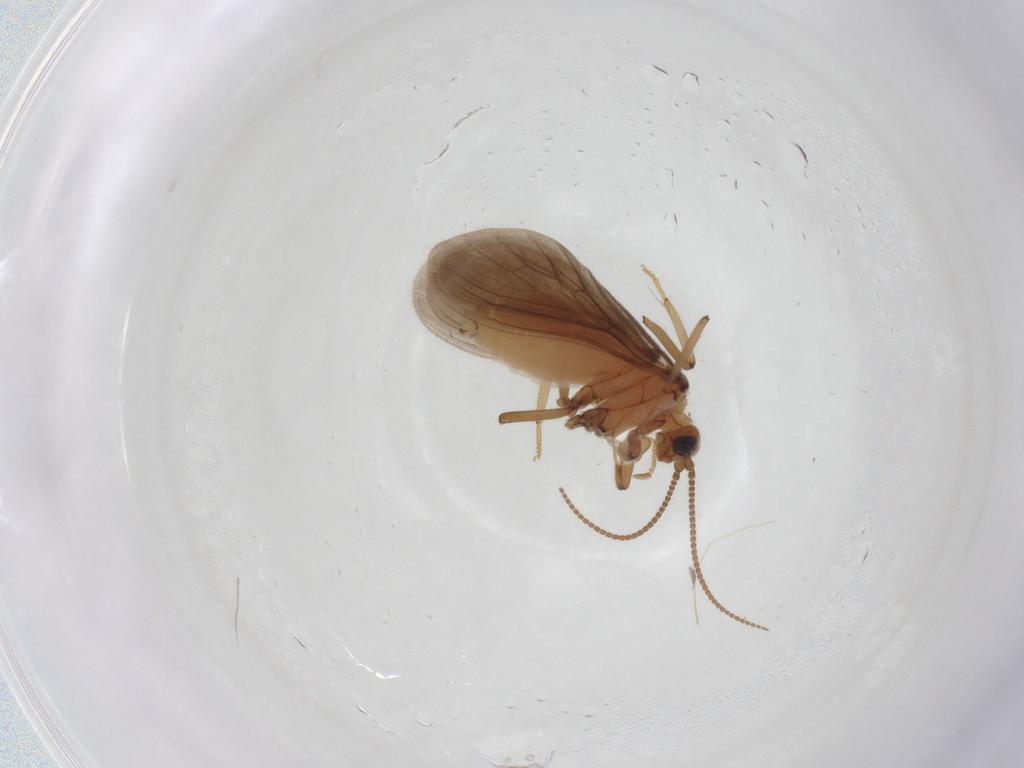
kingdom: Animalia
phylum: Arthropoda
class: Insecta
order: Neuroptera
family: Coniopterygidae
